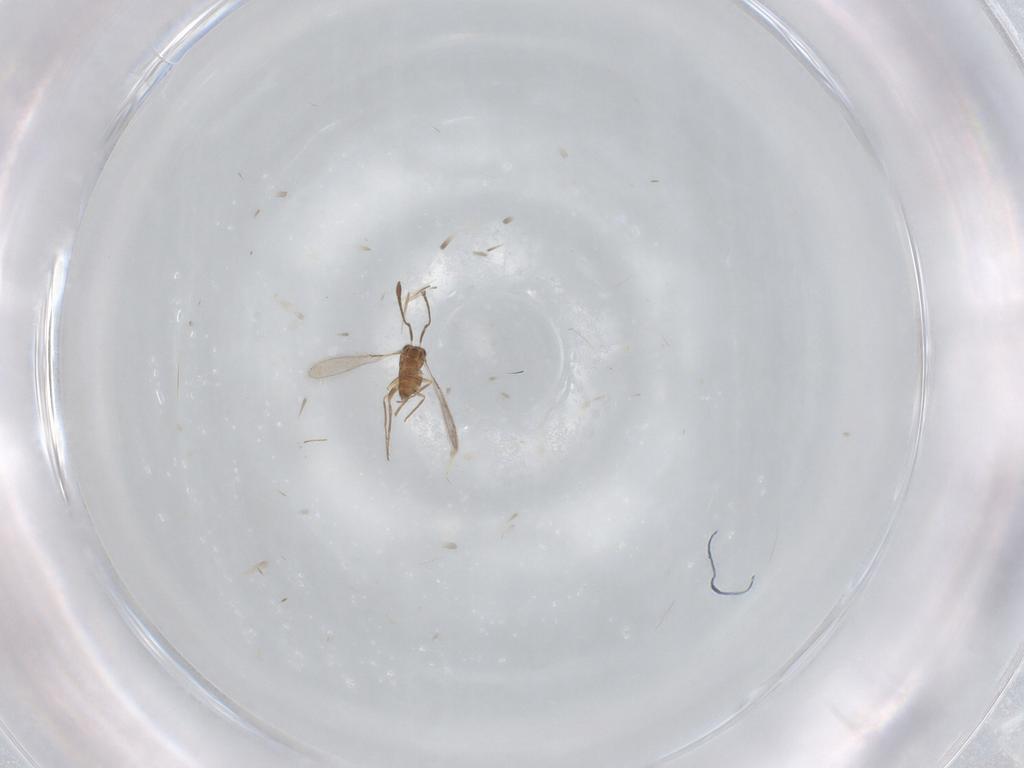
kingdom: Animalia
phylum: Arthropoda
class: Insecta
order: Hymenoptera
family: Mymaridae
